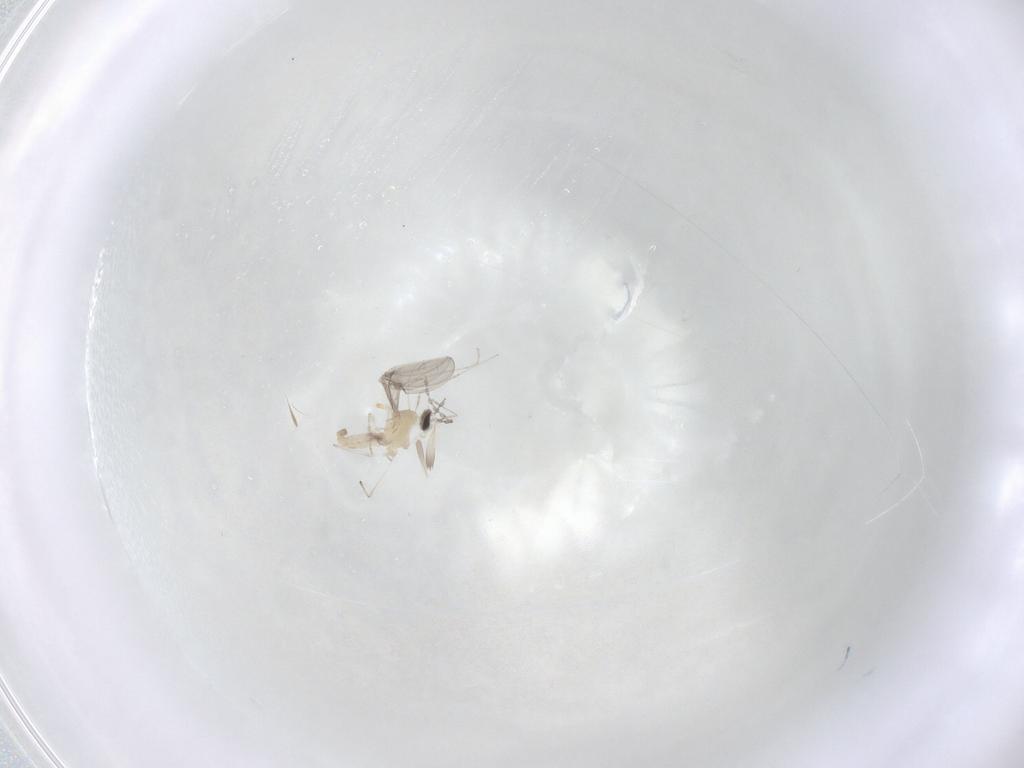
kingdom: Animalia
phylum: Arthropoda
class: Insecta
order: Diptera
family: Cecidomyiidae
